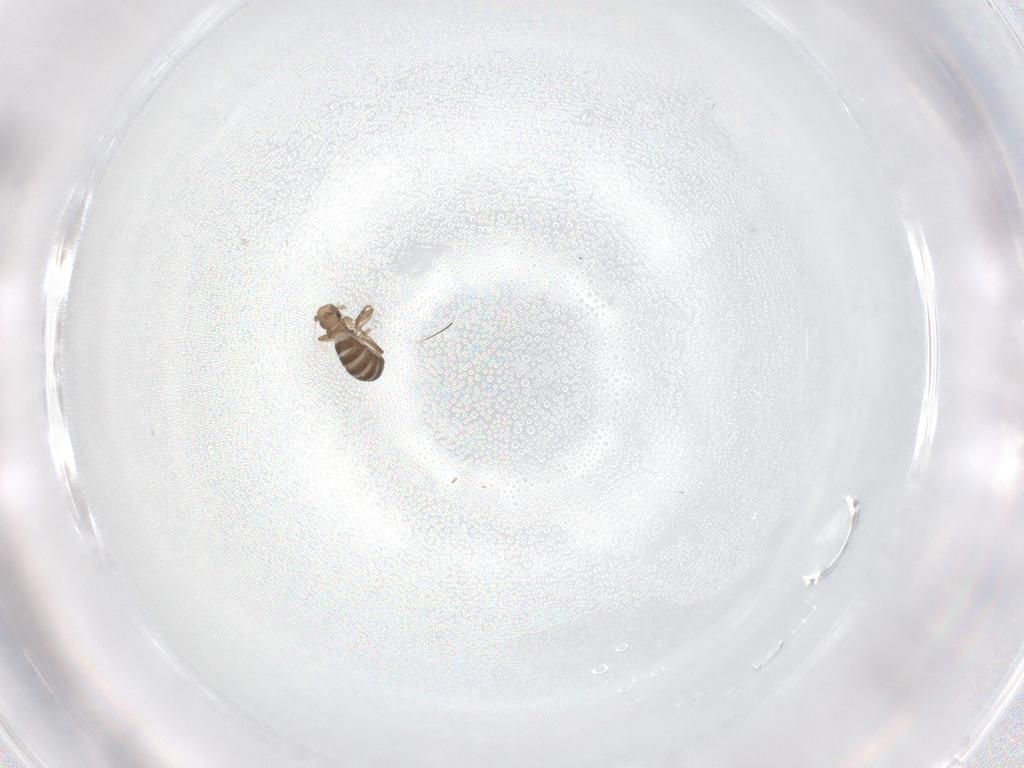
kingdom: Animalia
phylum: Arthropoda
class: Insecta
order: Diptera
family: Phoridae
